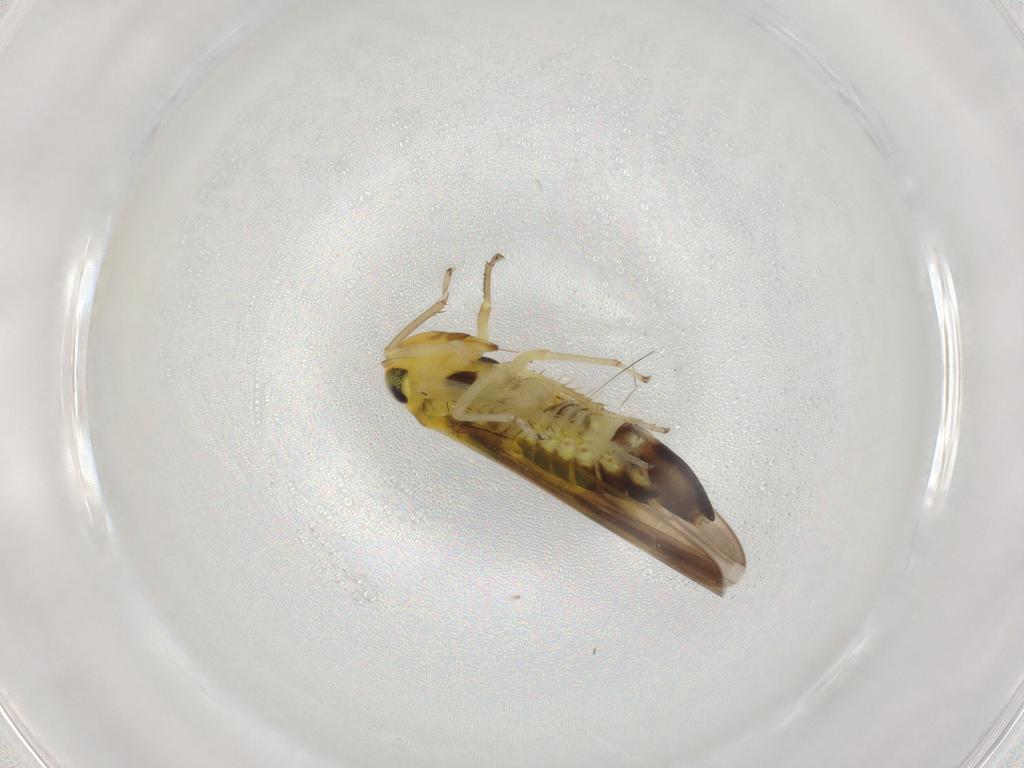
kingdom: Animalia
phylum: Arthropoda
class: Insecta
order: Hemiptera
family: Cicadellidae
